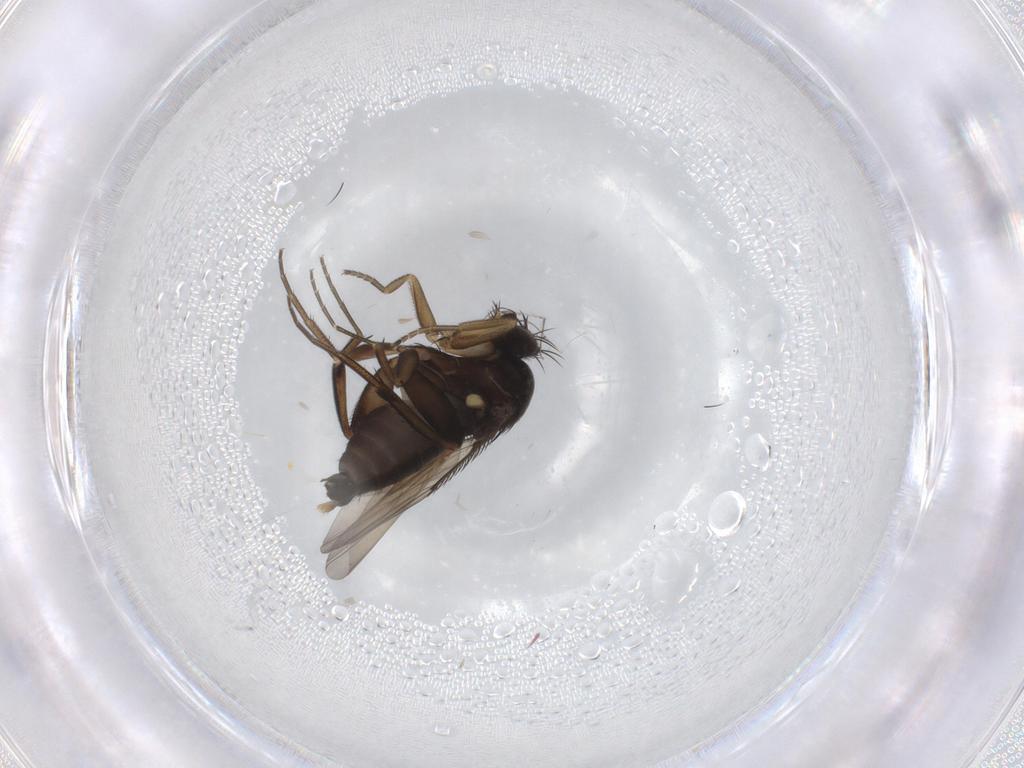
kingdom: Animalia
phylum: Arthropoda
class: Insecta
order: Diptera
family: Phoridae
